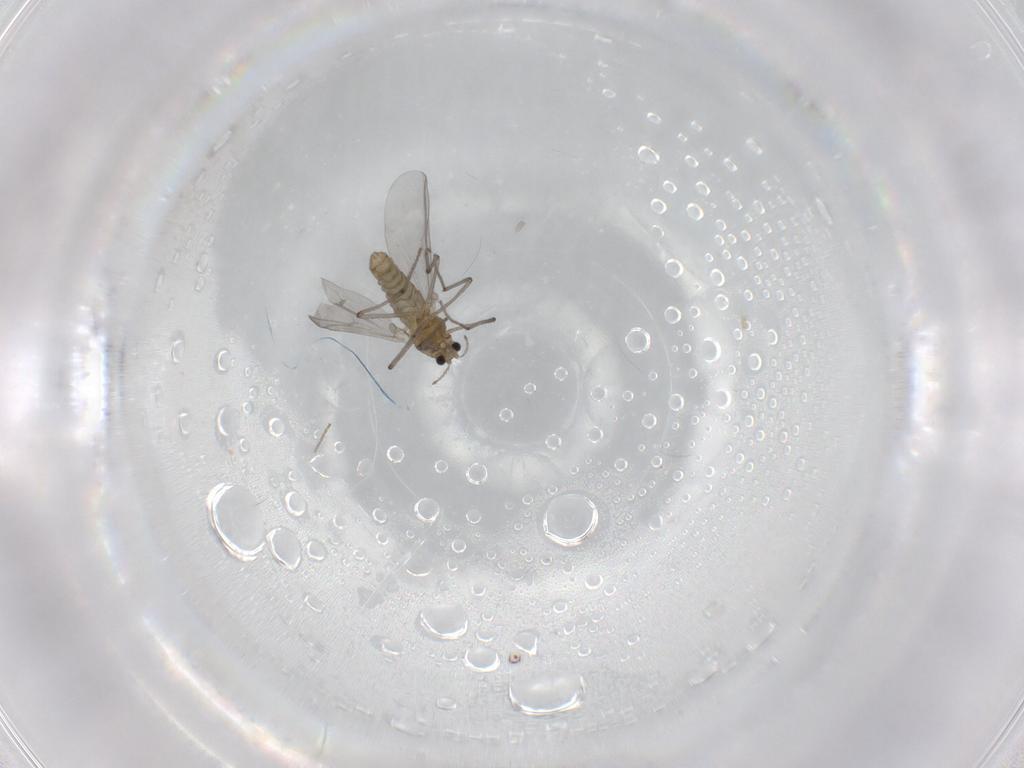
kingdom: Animalia
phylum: Arthropoda
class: Insecta
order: Diptera
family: Chironomidae
